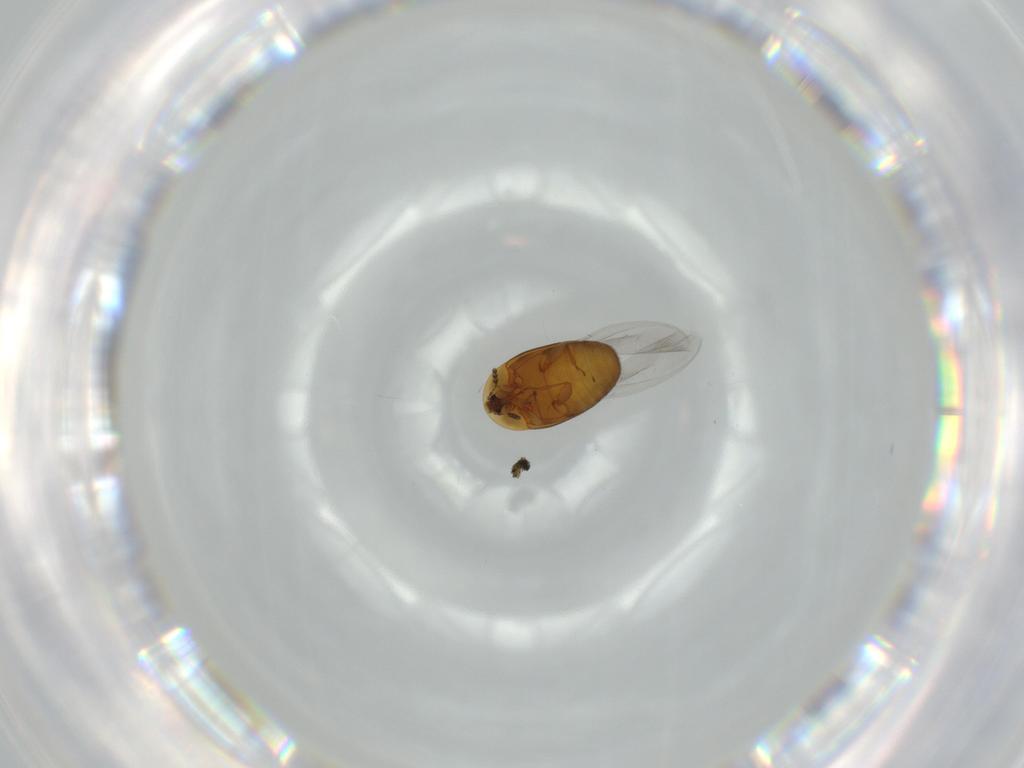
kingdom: Animalia
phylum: Arthropoda
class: Insecta
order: Coleoptera
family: Corylophidae
